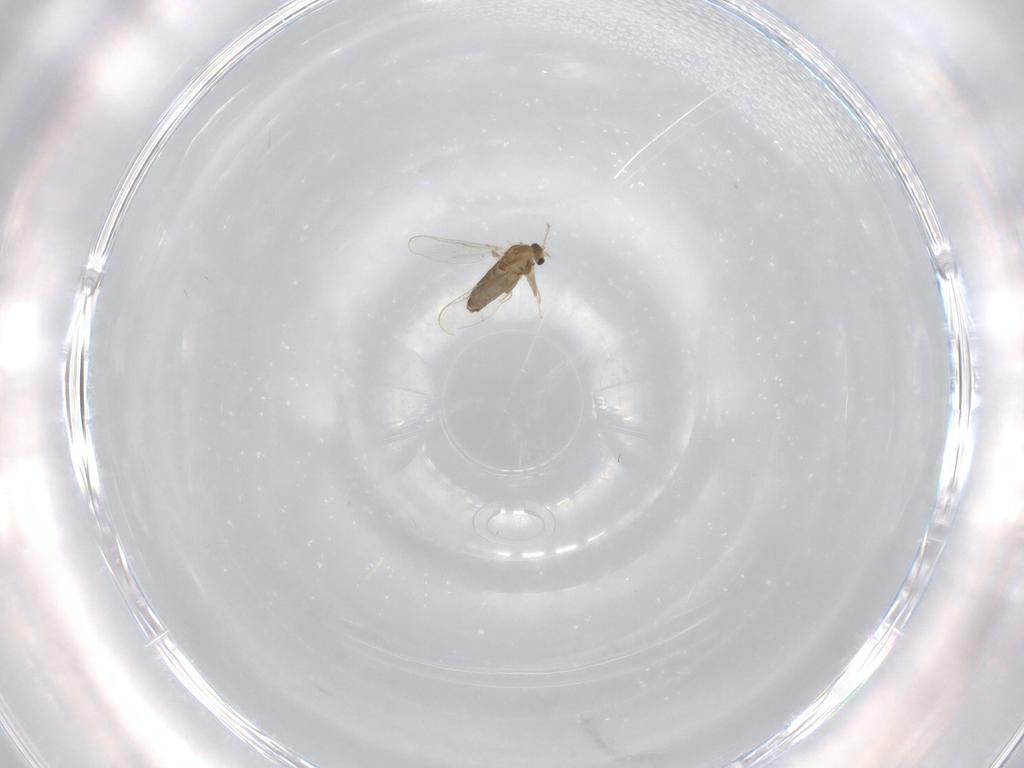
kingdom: Animalia
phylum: Arthropoda
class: Insecta
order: Diptera
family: Chironomidae
